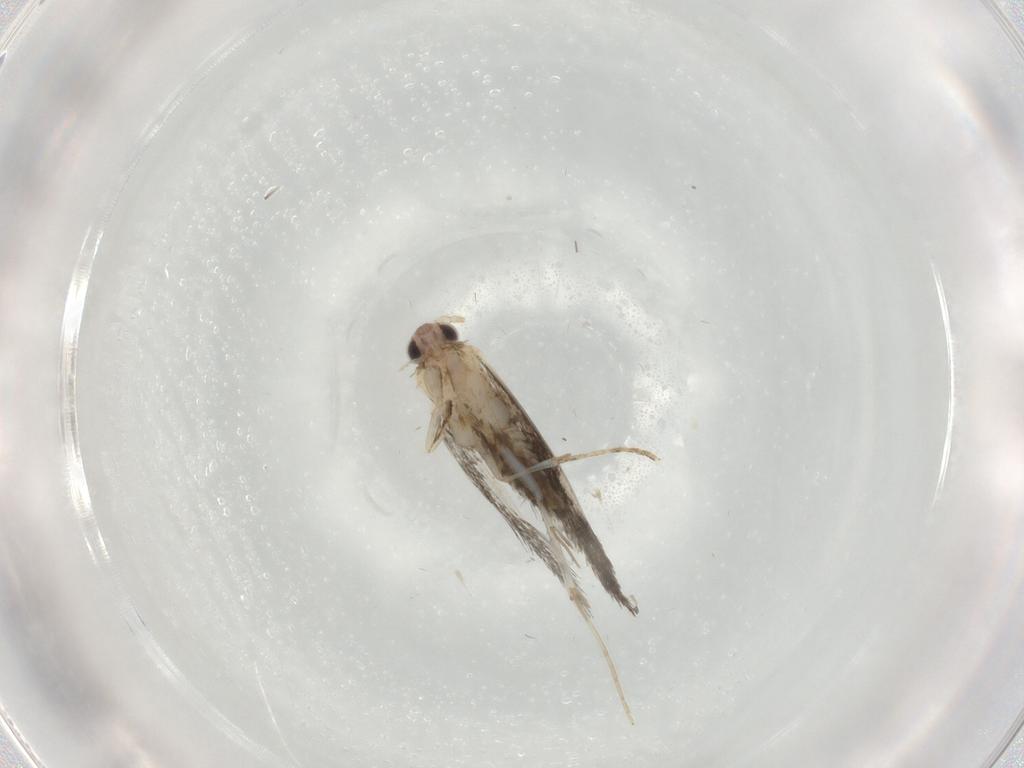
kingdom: Animalia
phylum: Arthropoda
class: Insecta
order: Lepidoptera
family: Tineidae
